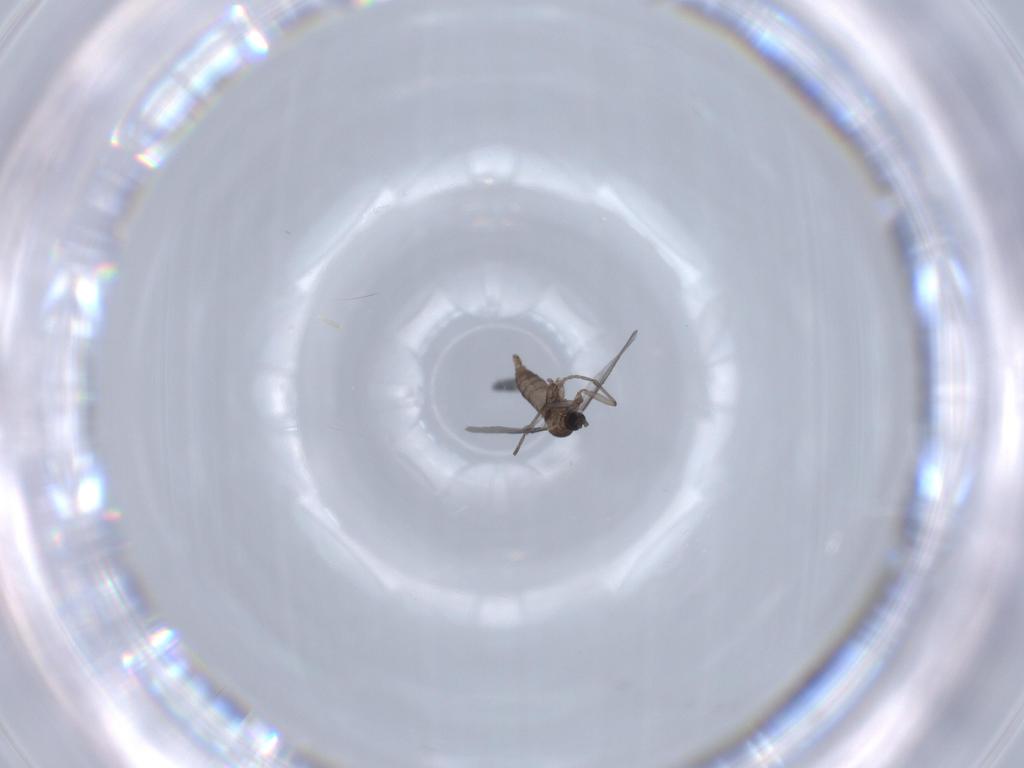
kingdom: Animalia
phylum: Arthropoda
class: Insecta
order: Diptera
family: Sciaridae
